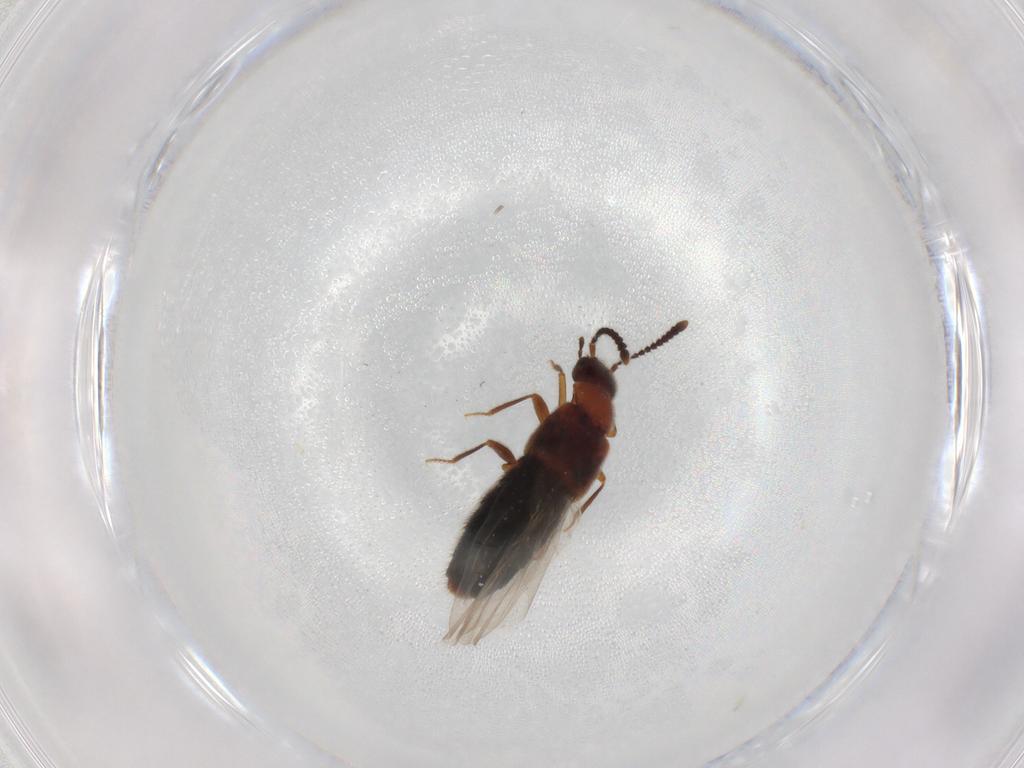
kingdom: Animalia
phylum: Arthropoda
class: Insecta
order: Coleoptera
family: Staphylinidae
